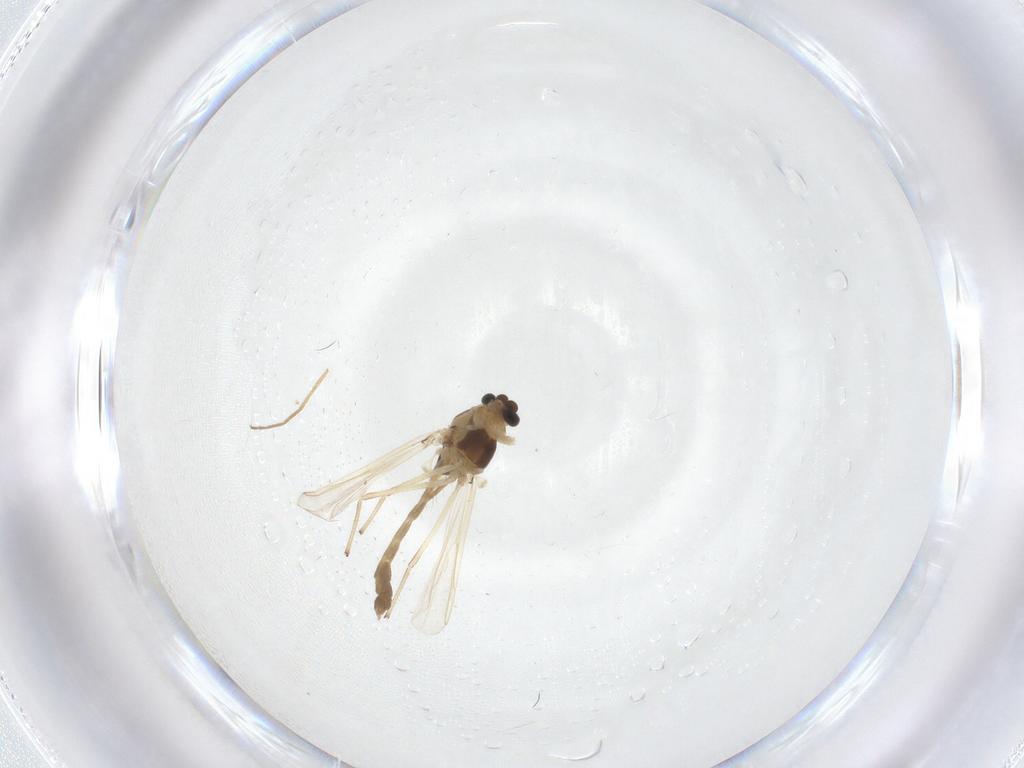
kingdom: Animalia
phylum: Arthropoda
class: Insecta
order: Diptera
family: Chironomidae
